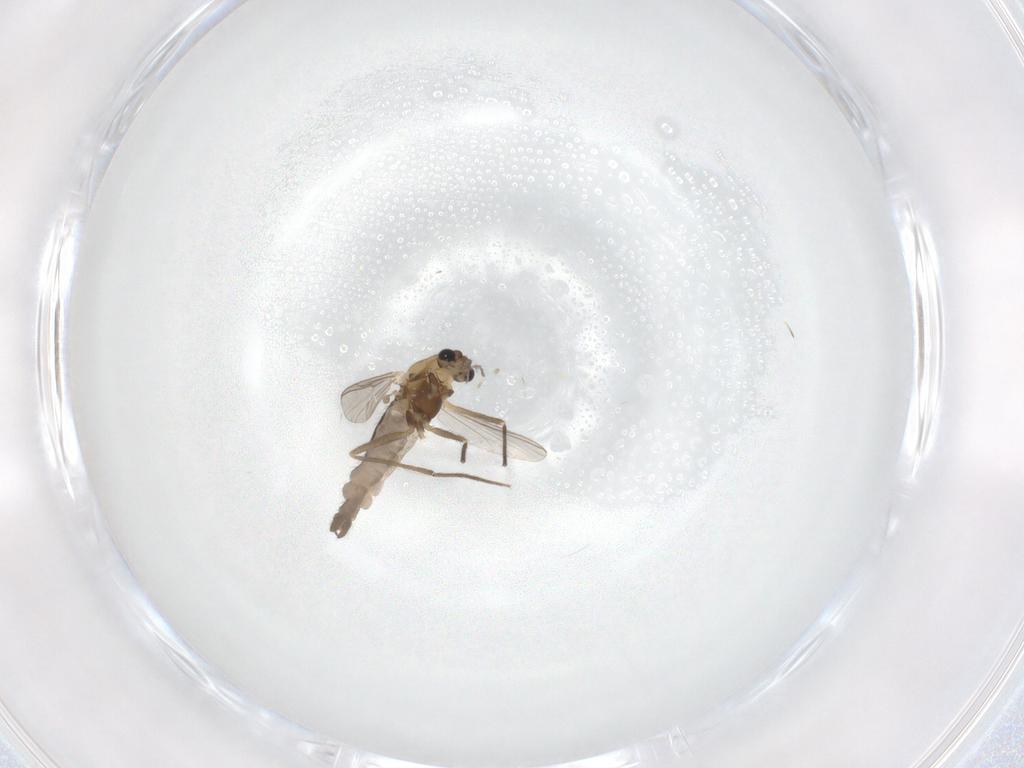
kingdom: Animalia
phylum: Arthropoda
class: Insecta
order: Diptera
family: Chironomidae
